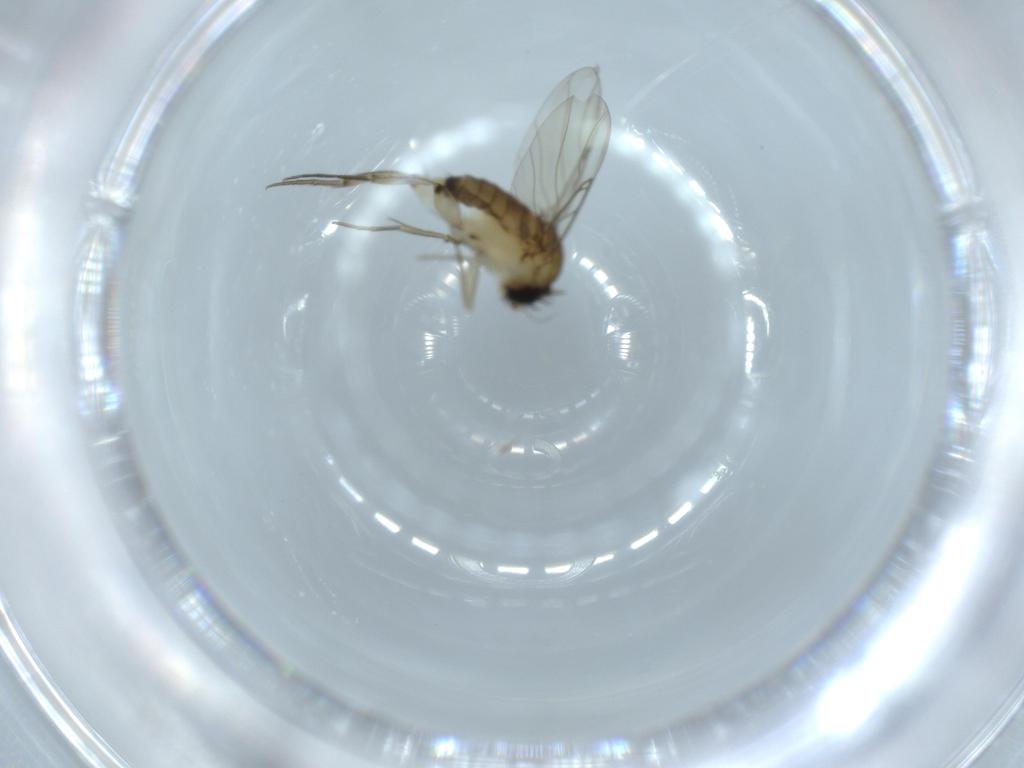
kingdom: Animalia
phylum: Arthropoda
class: Insecta
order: Diptera
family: Phoridae
